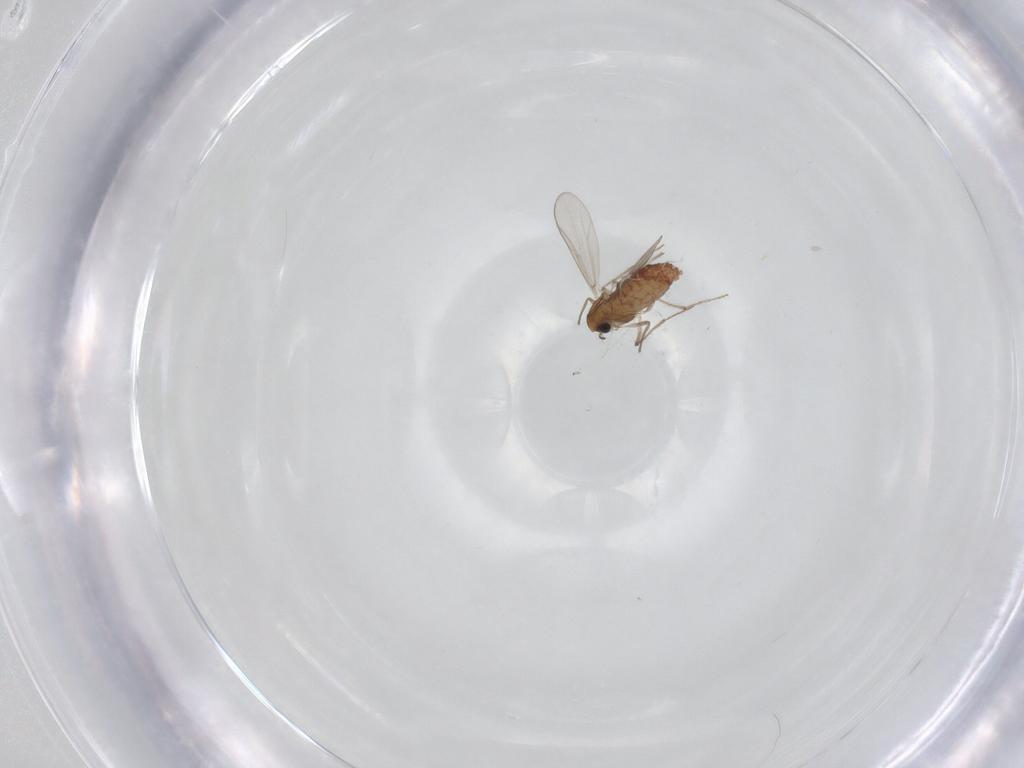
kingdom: Animalia
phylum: Arthropoda
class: Insecta
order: Diptera
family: Chironomidae
